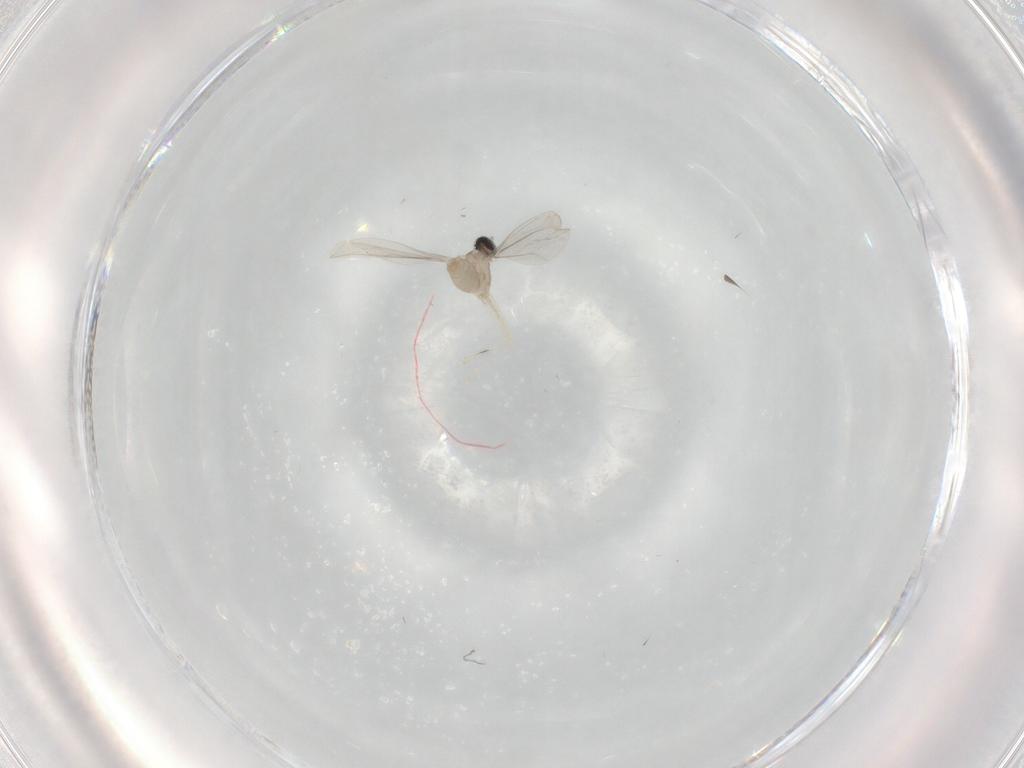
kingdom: Animalia
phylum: Arthropoda
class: Insecta
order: Diptera
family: Cecidomyiidae
